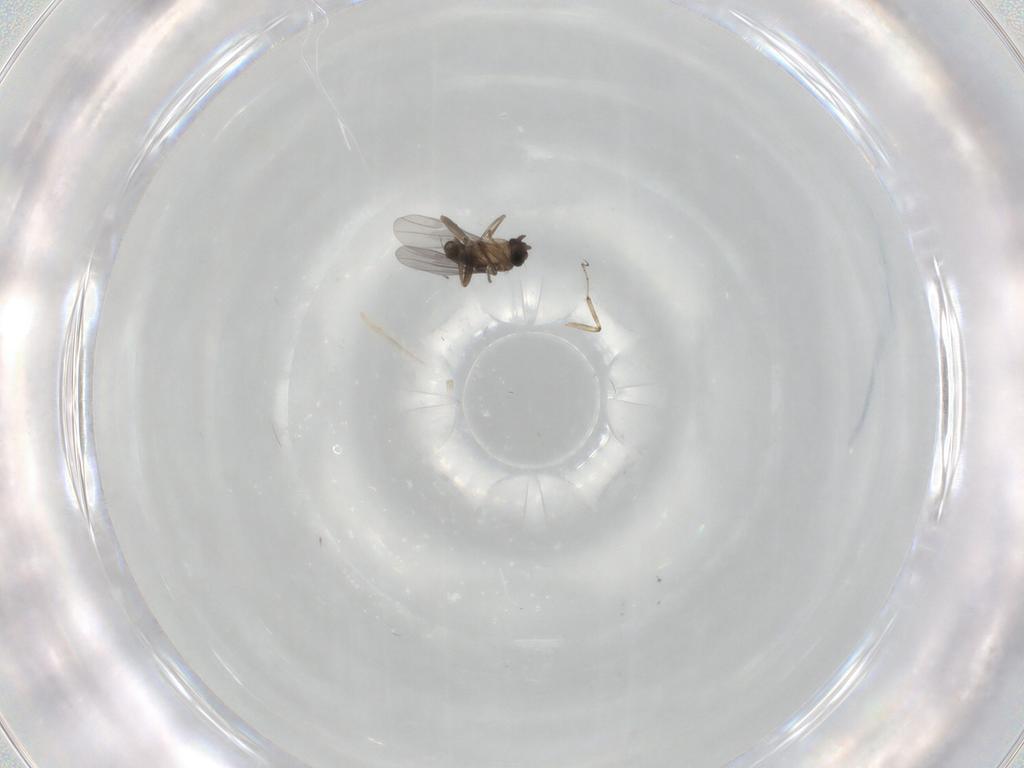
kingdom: Animalia
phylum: Arthropoda
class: Insecta
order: Diptera
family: Ceratopogonidae
